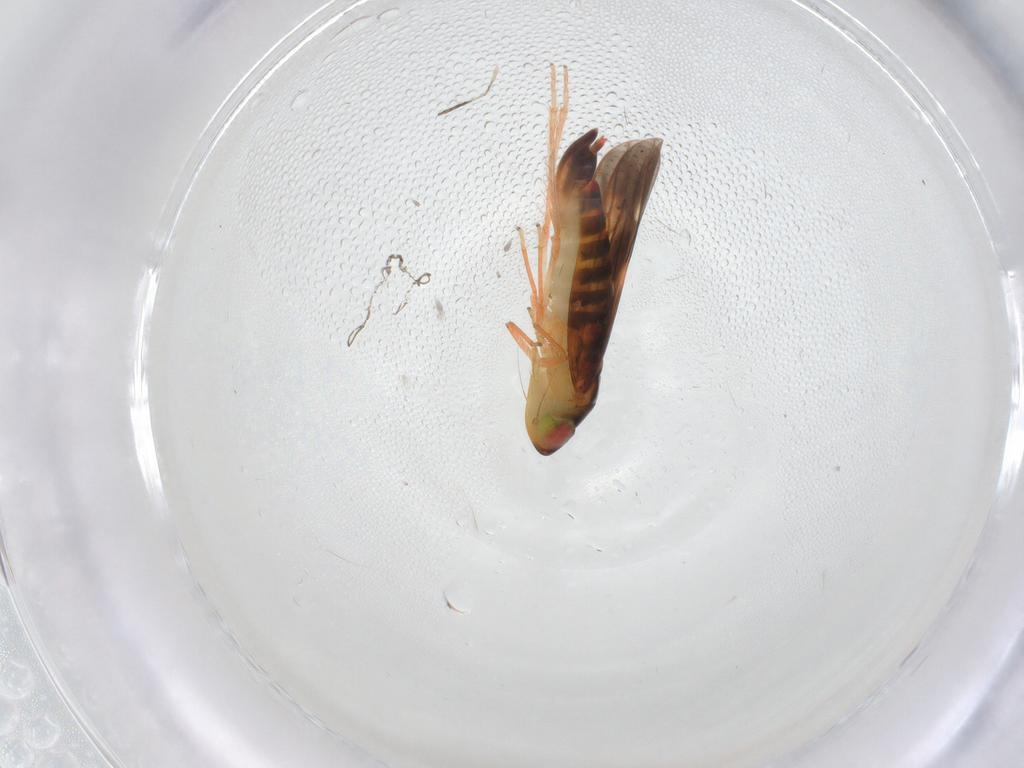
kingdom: Animalia
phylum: Arthropoda
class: Insecta
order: Hemiptera
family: Cicadellidae
